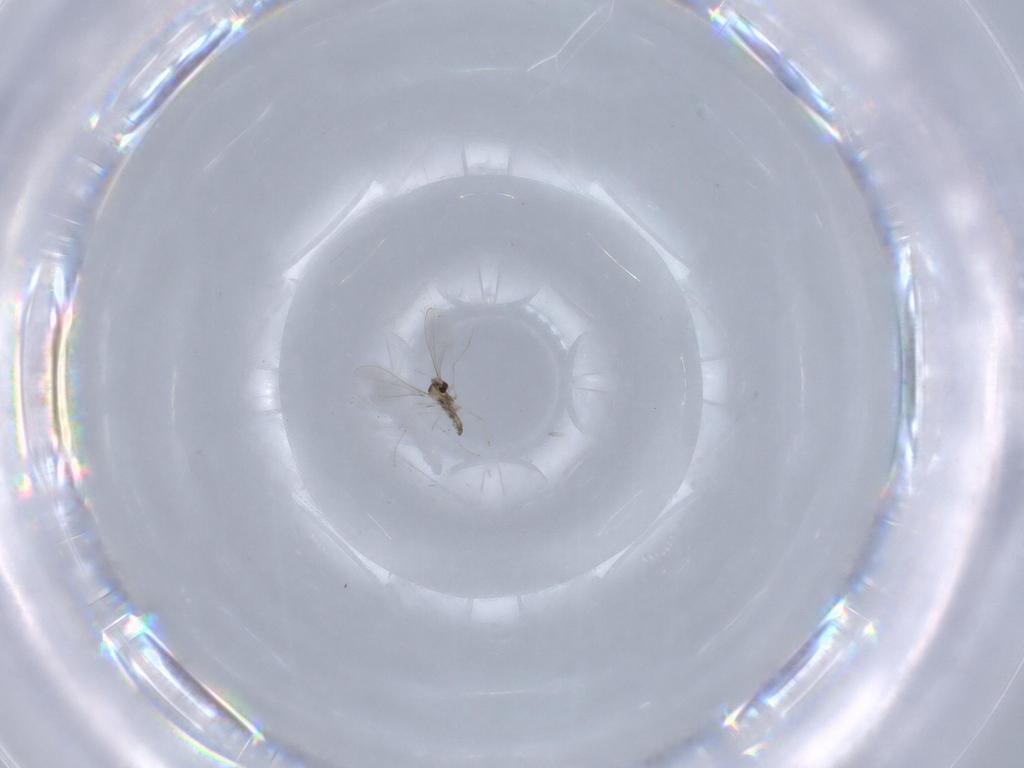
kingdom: Animalia
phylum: Arthropoda
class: Insecta
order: Diptera
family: Cecidomyiidae
